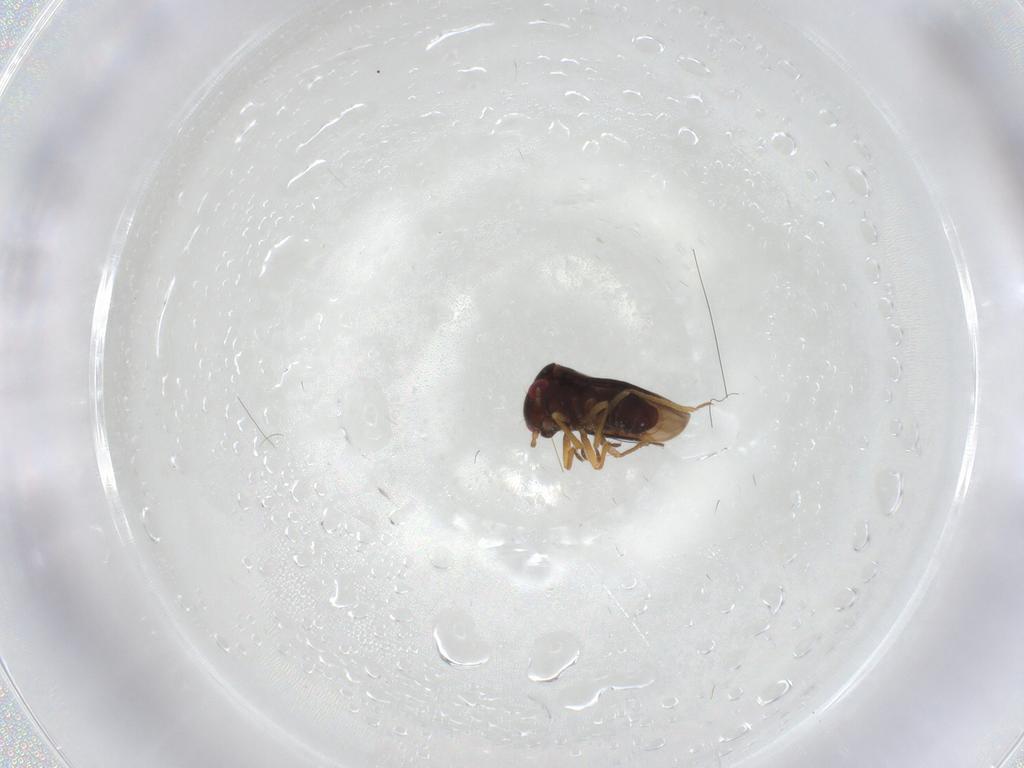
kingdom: Animalia
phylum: Arthropoda
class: Insecta
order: Hemiptera
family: Schizopteridae
